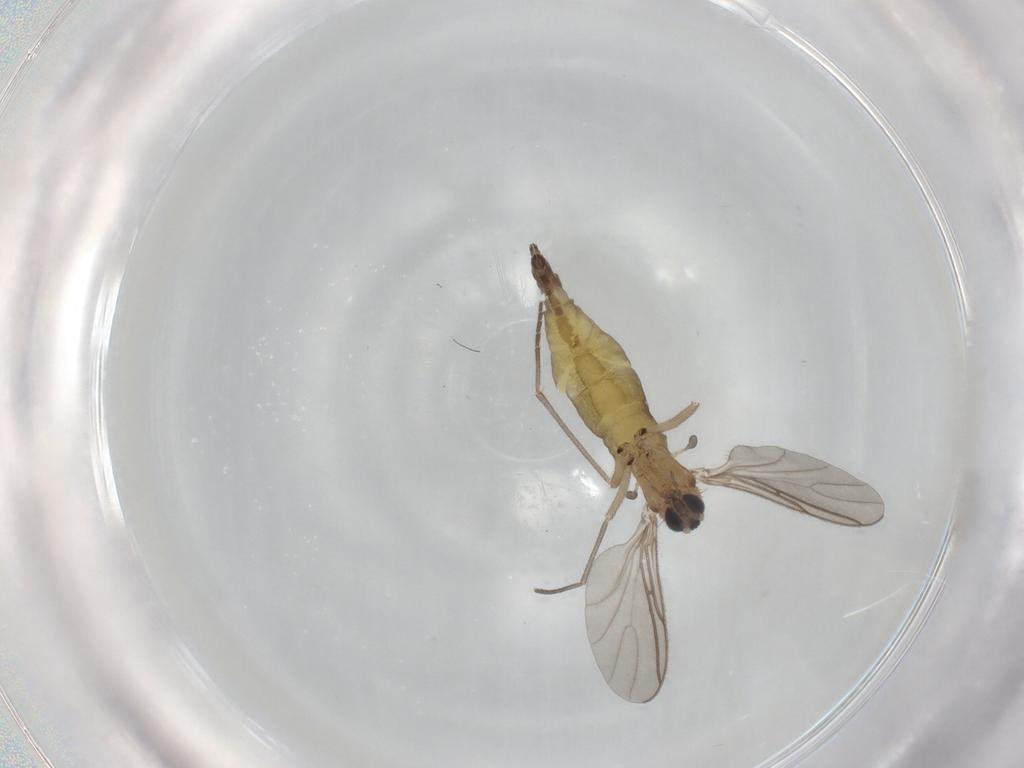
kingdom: Animalia
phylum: Arthropoda
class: Insecta
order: Diptera
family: Sciaridae
